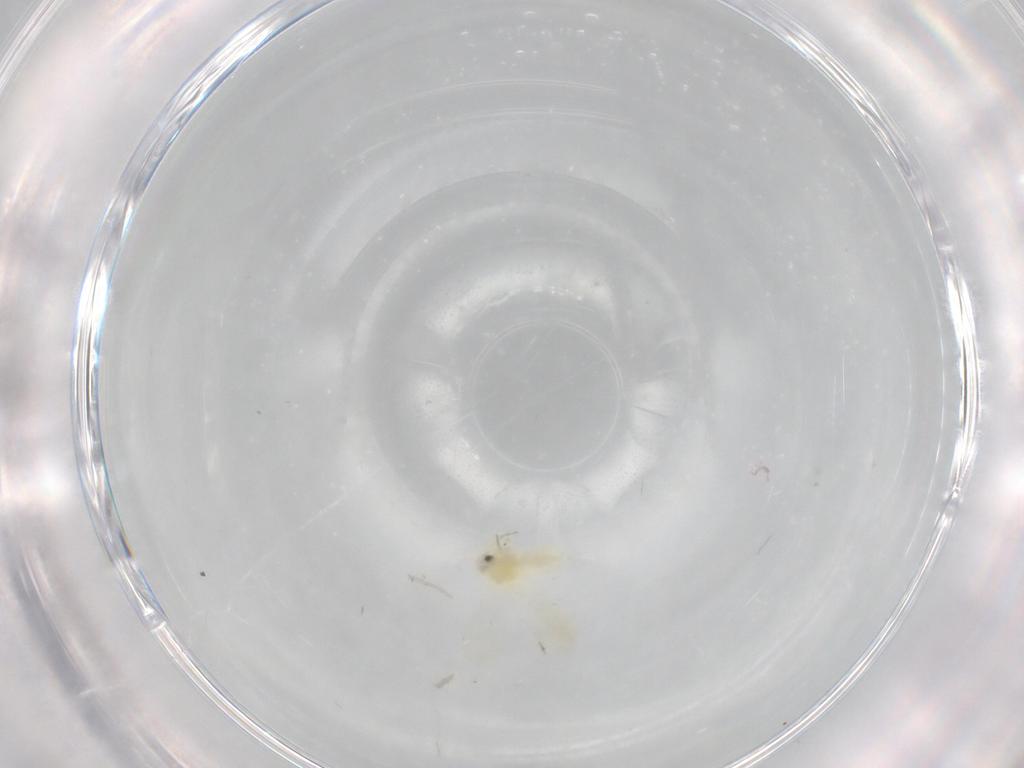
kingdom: Animalia
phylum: Arthropoda
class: Insecta
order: Hemiptera
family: Aleyrodidae
